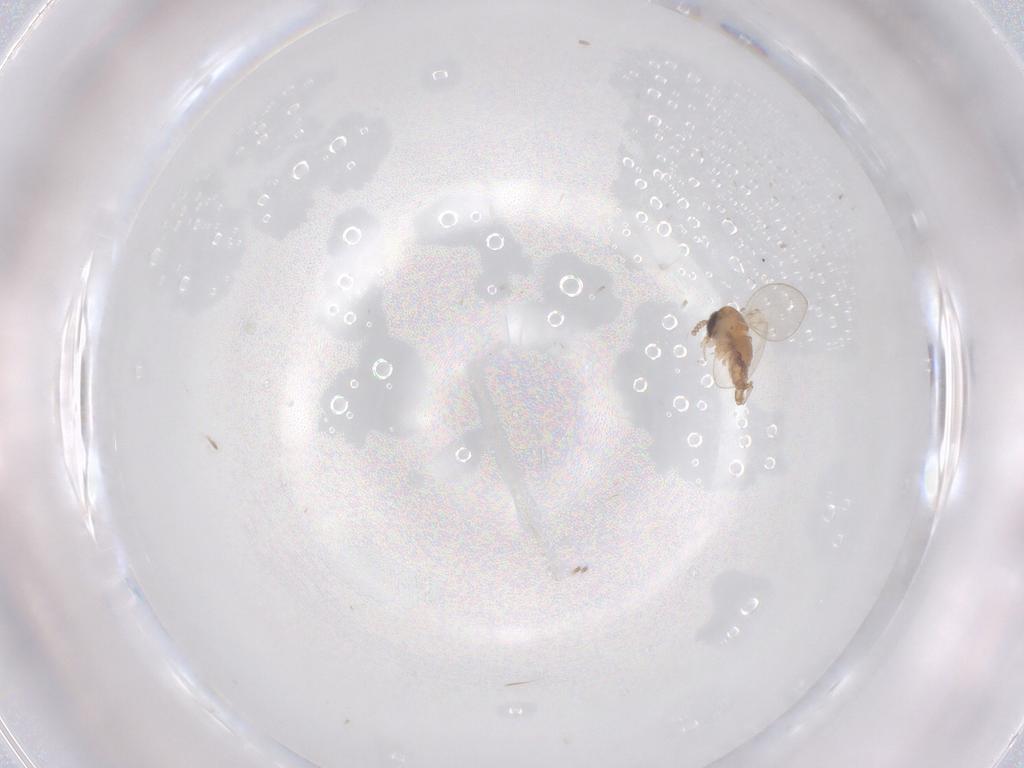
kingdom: Animalia
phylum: Arthropoda
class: Insecta
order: Diptera
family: Psychodidae
